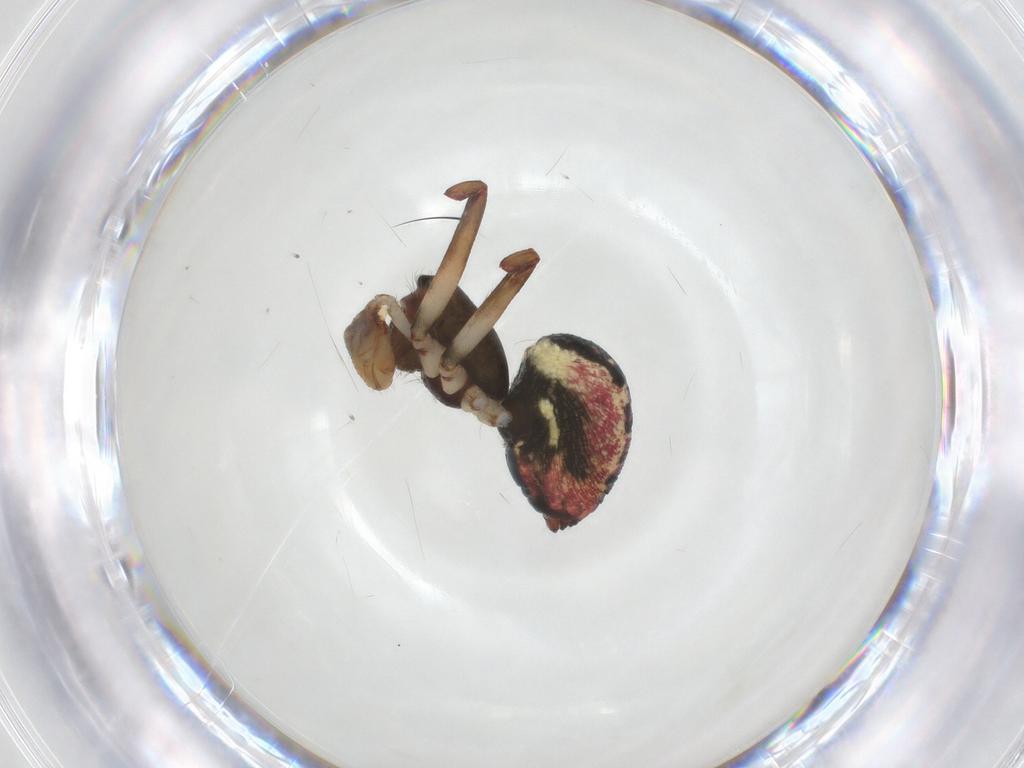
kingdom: Animalia
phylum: Arthropoda
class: Arachnida
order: Araneae
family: Linyphiidae
